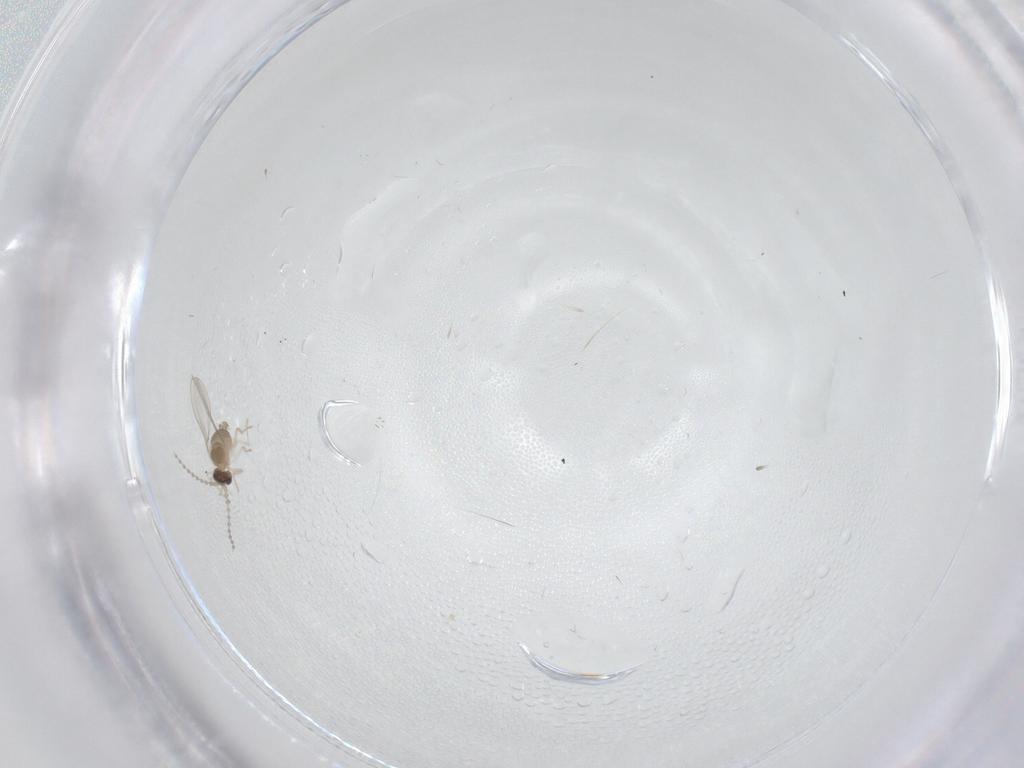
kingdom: Animalia
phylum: Arthropoda
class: Insecta
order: Diptera
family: Cecidomyiidae
